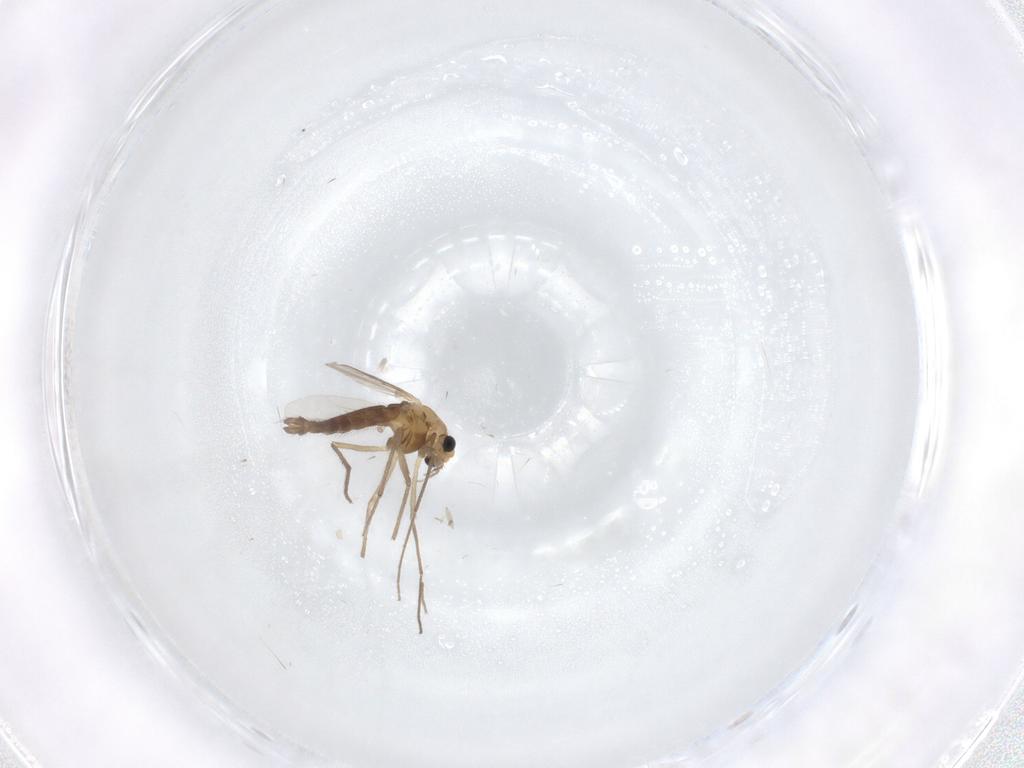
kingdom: Animalia
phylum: Arthropoda
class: Insecta
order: Diptera
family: Chironomidae
